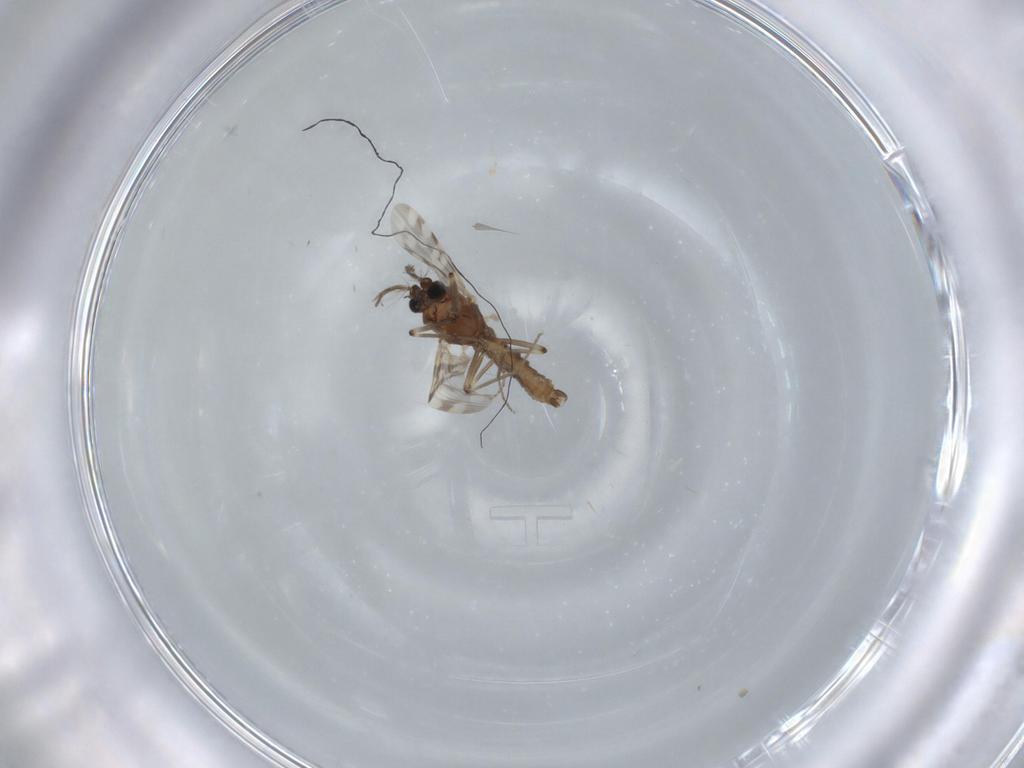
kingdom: Animalia
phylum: Arthropoda
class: Insecta
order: Diptera
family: Ceratopogonidae
